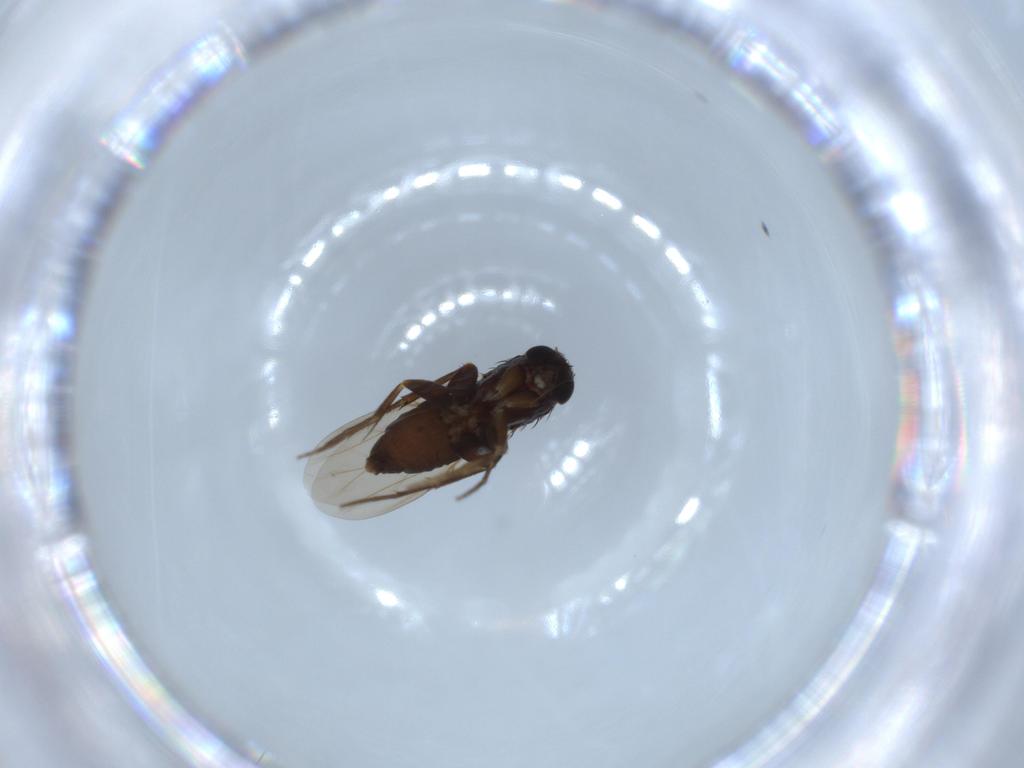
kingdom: Animalia
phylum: Arthropoda
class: Insecta
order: Diptera
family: Phoridae
